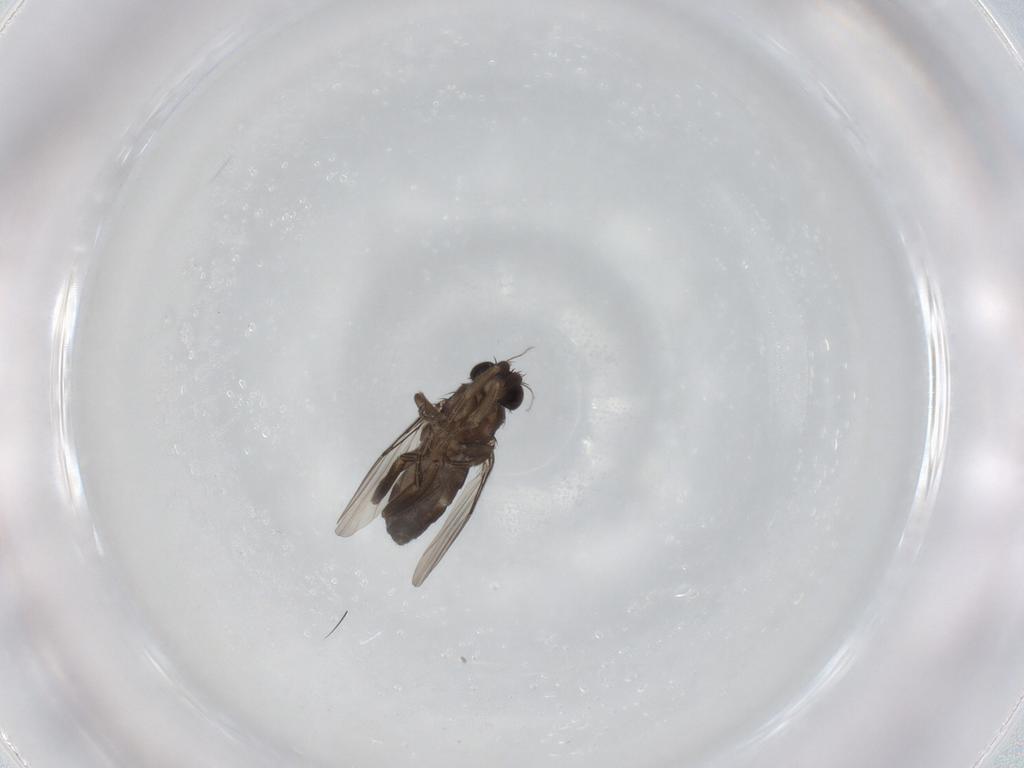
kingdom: Animalia
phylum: Arthropoda
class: Insecta
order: Diptera
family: Phoridae
